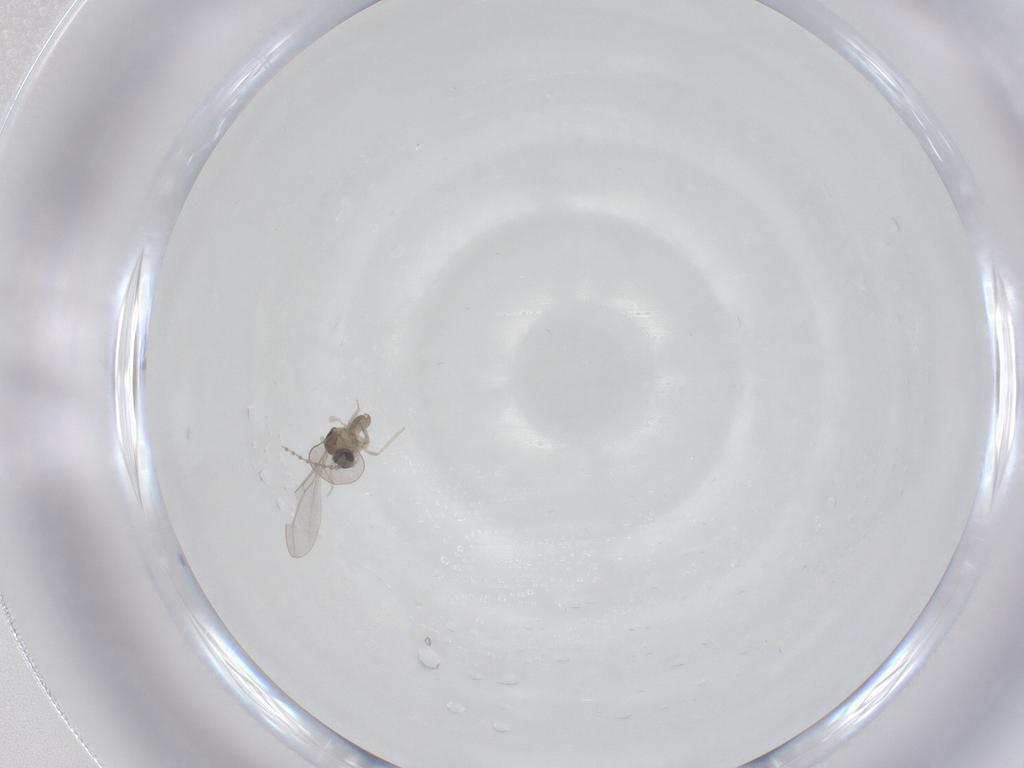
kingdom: Animalia
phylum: Arthropoda
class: Insecta
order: Diptera
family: Cecidomyiidae
